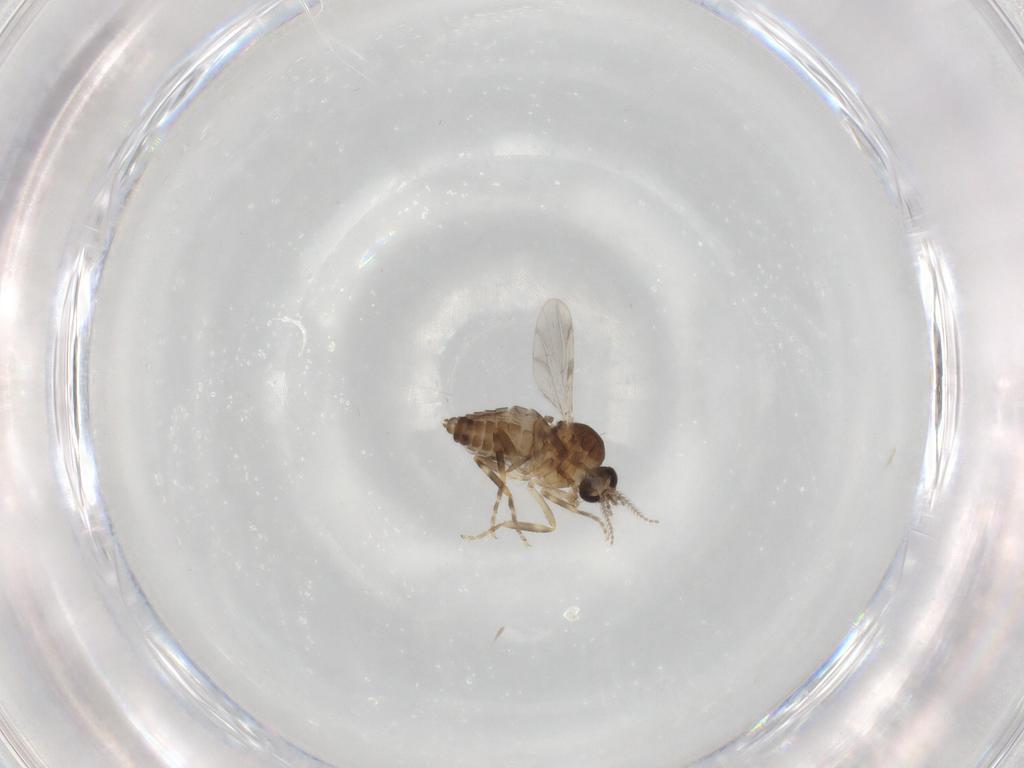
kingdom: Animalia
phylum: Arthropoda
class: Insecta
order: Diptera
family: Ceratopogonidae
